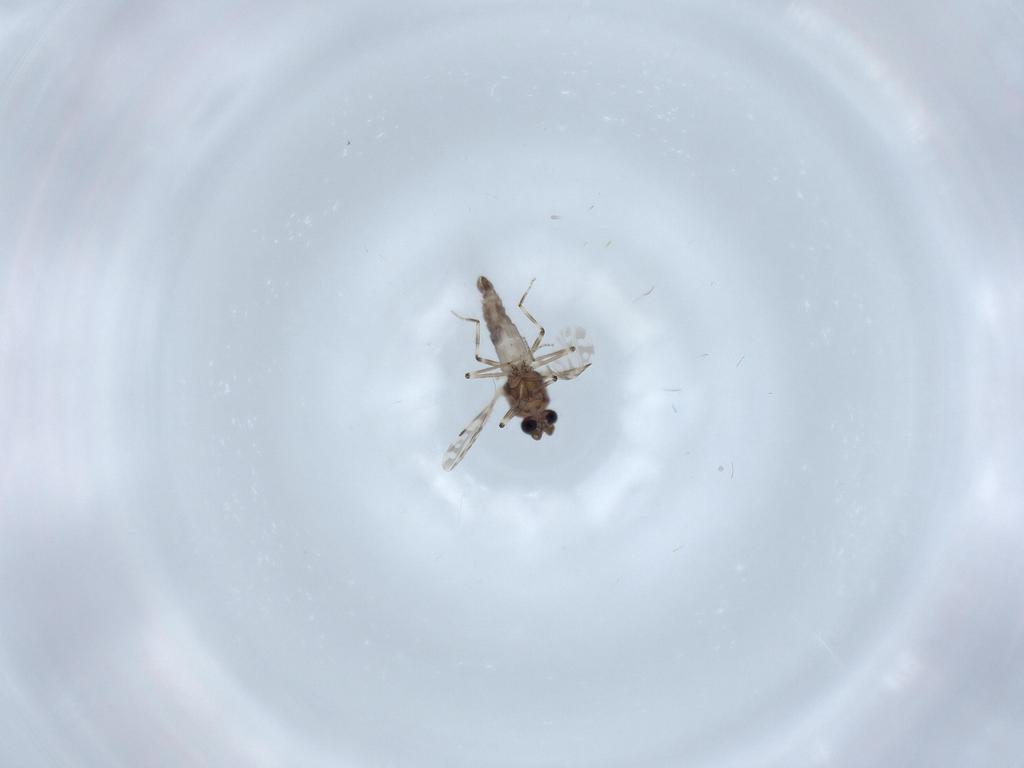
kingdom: Animalia
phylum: Arthropoda
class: Insecta
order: Diptera
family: Ceratopogonidae
